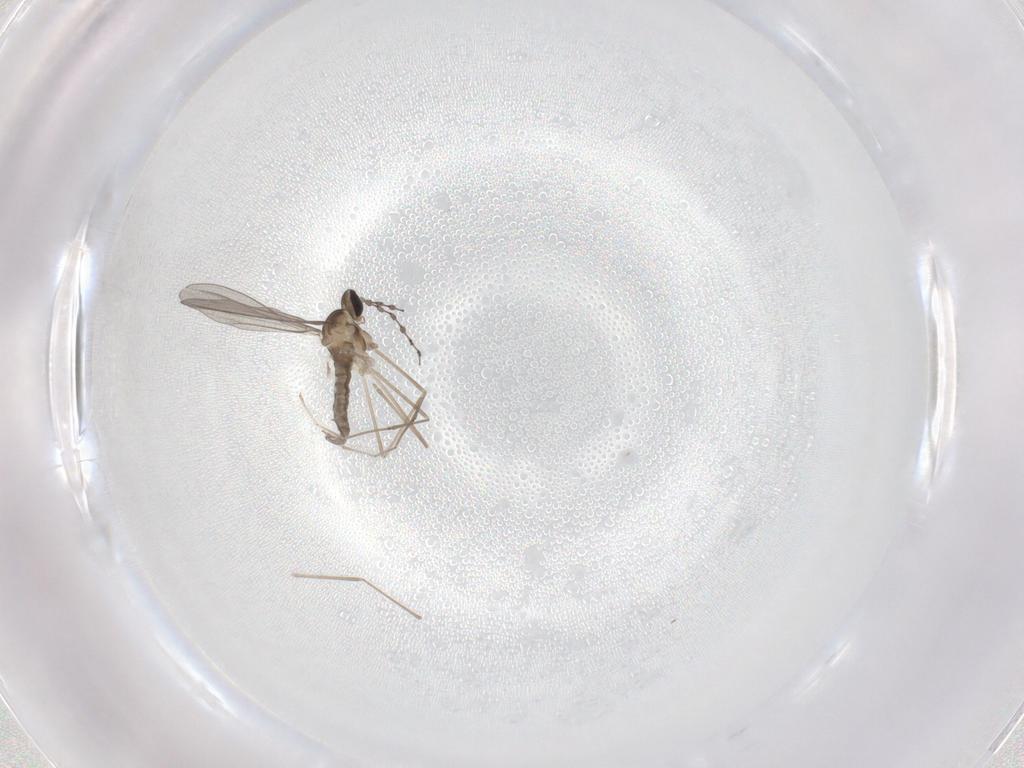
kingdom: Animalia
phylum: Arthropoda
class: Insecta
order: Diptera
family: Cecidomyiidae
